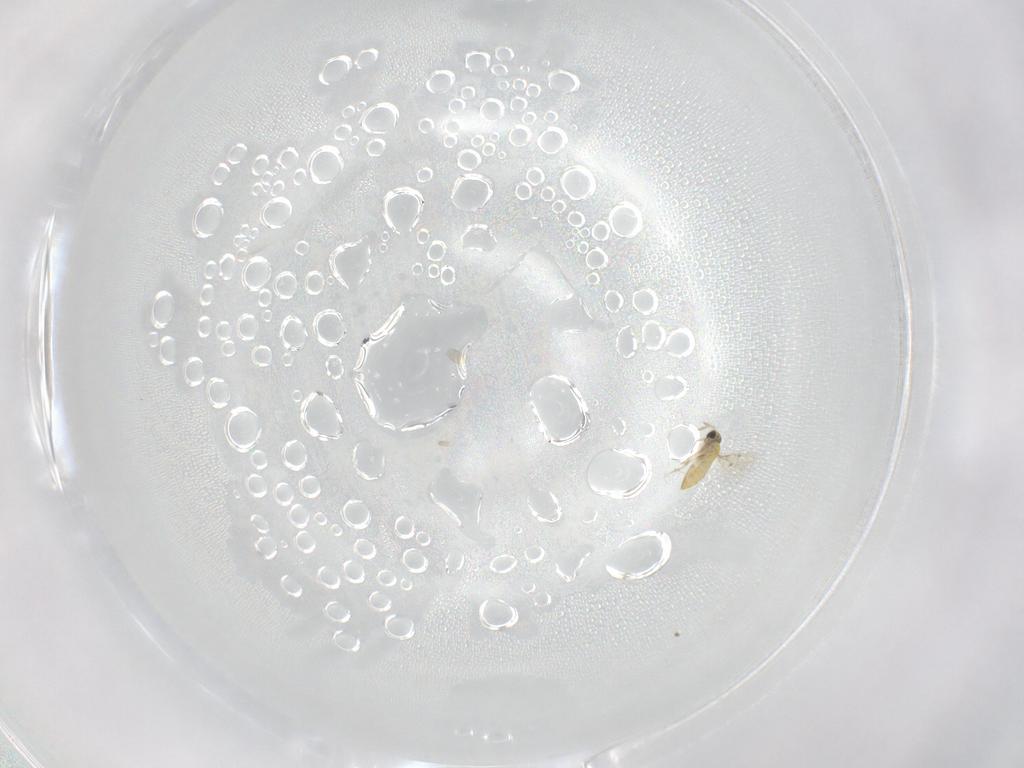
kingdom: Animalia
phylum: Arthropoda
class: Insecta
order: Hymenoptera
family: Trichogrammatidae
